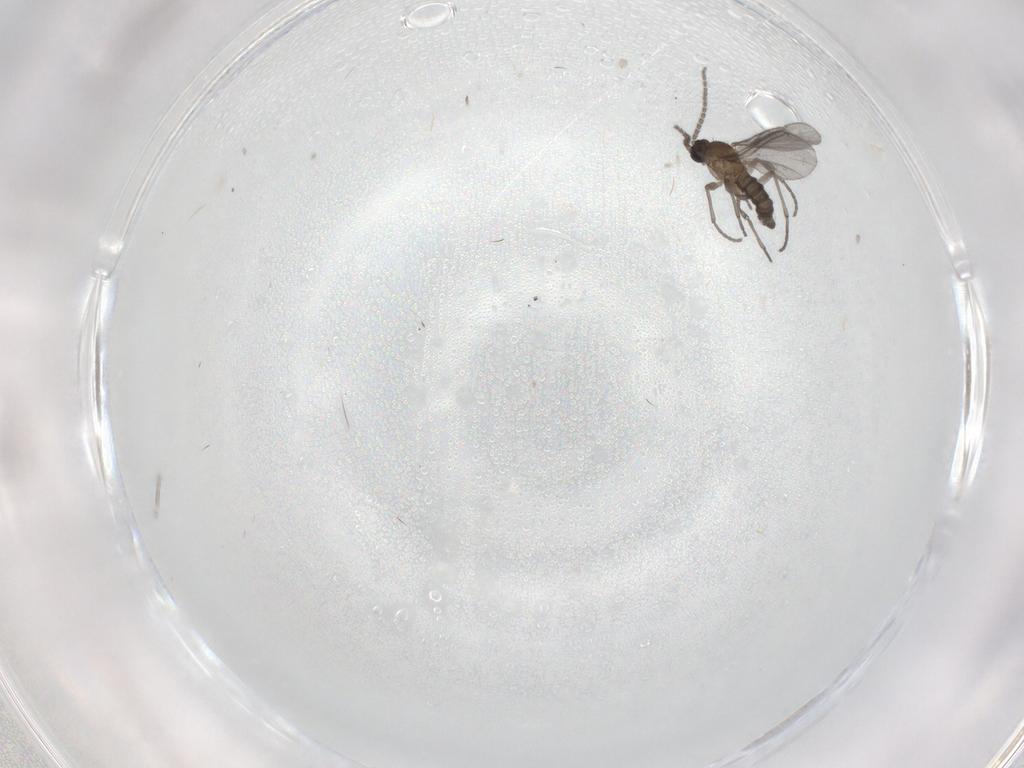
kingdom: Animalia
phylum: Arthropoda
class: Insecta
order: Diptera
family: Sciaridae
